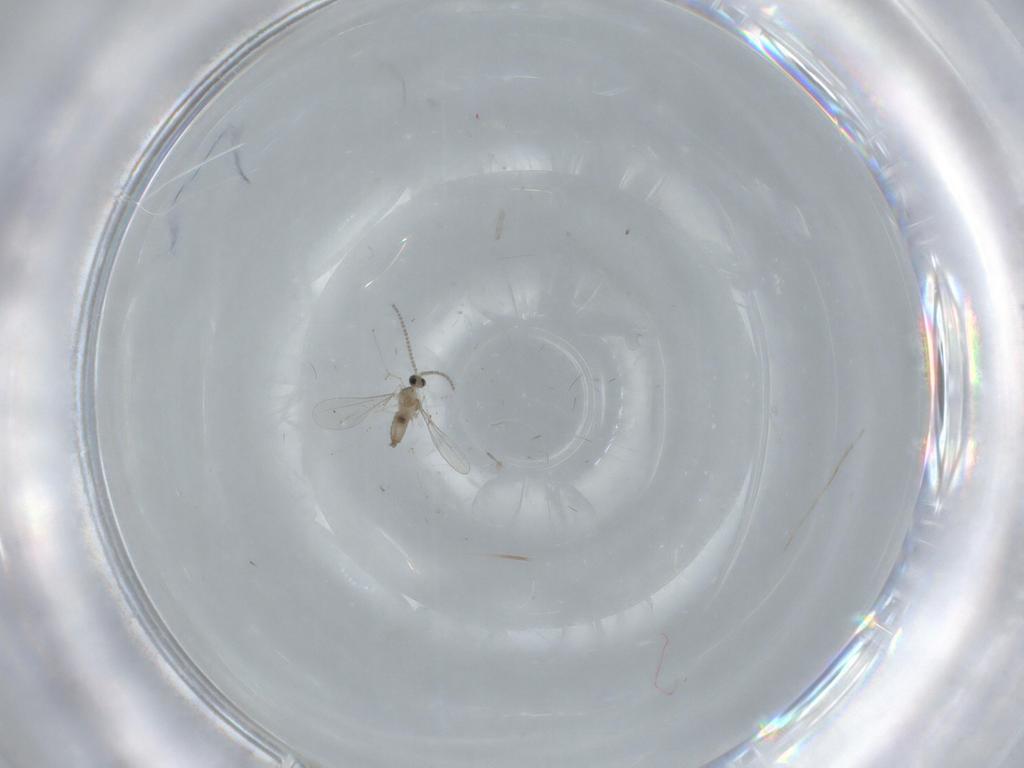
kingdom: Animalia
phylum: Arthropoda
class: Insecta
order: Diptera
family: Cecidomyiidae
